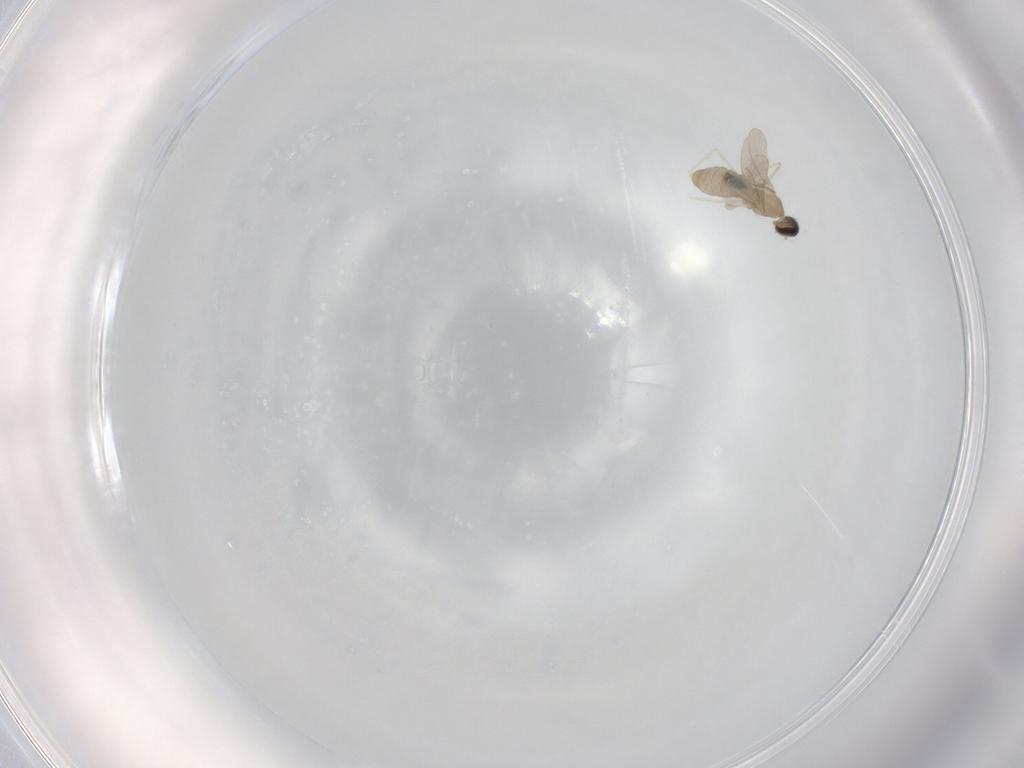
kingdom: Animalia
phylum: Arthropoda
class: Insecta
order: Diptera
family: Cecidomyiidae
